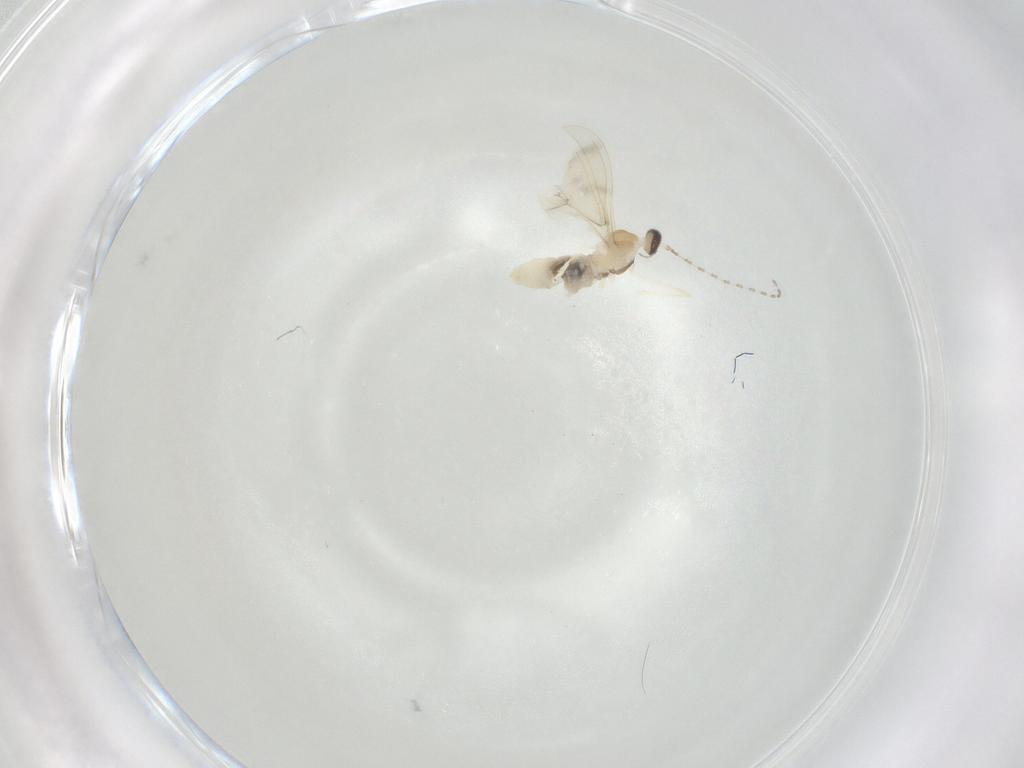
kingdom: Animalia
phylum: Arthropoda
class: Insecta
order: Diptera
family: Cecidomyiidae
